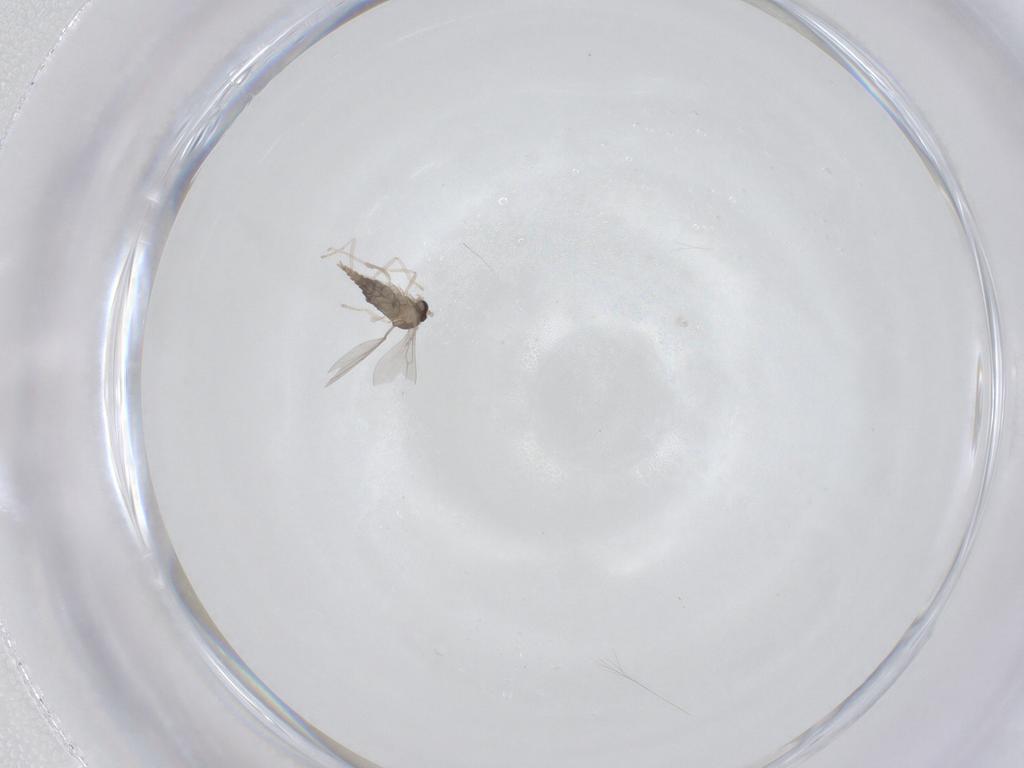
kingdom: Animalia
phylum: Arthropoda
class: Insecta
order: Diptera
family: Cecidomyiidae
